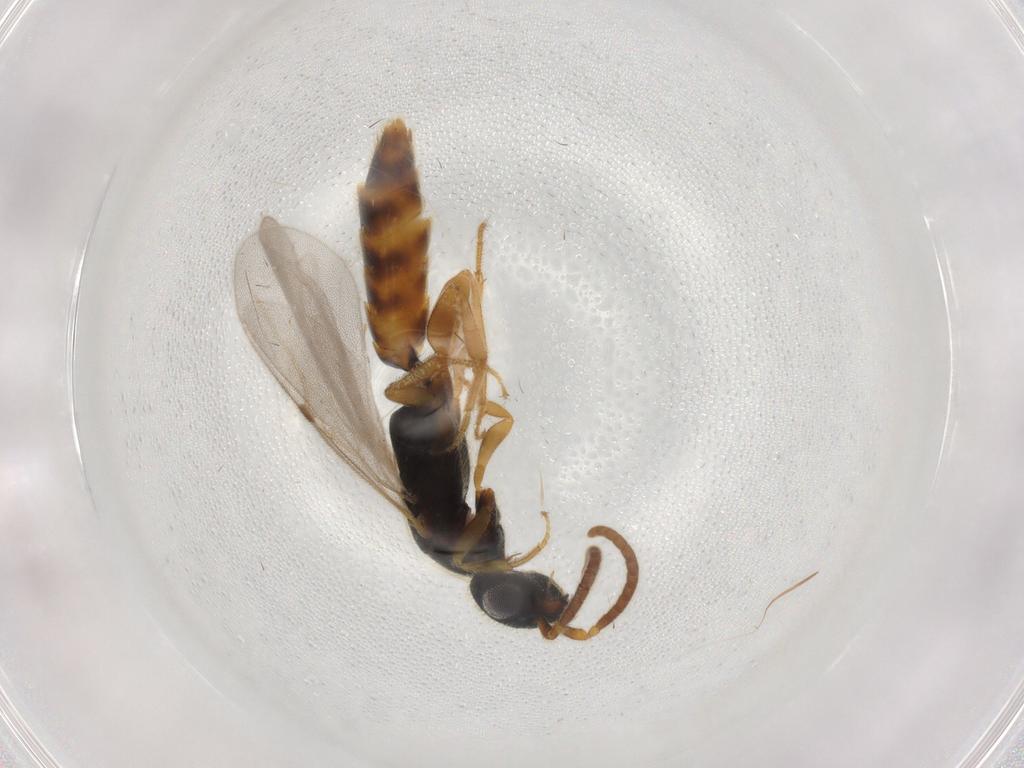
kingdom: Animalia
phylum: Arthropoda
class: Insecta
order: Hymenoptera
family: Bethylidae
